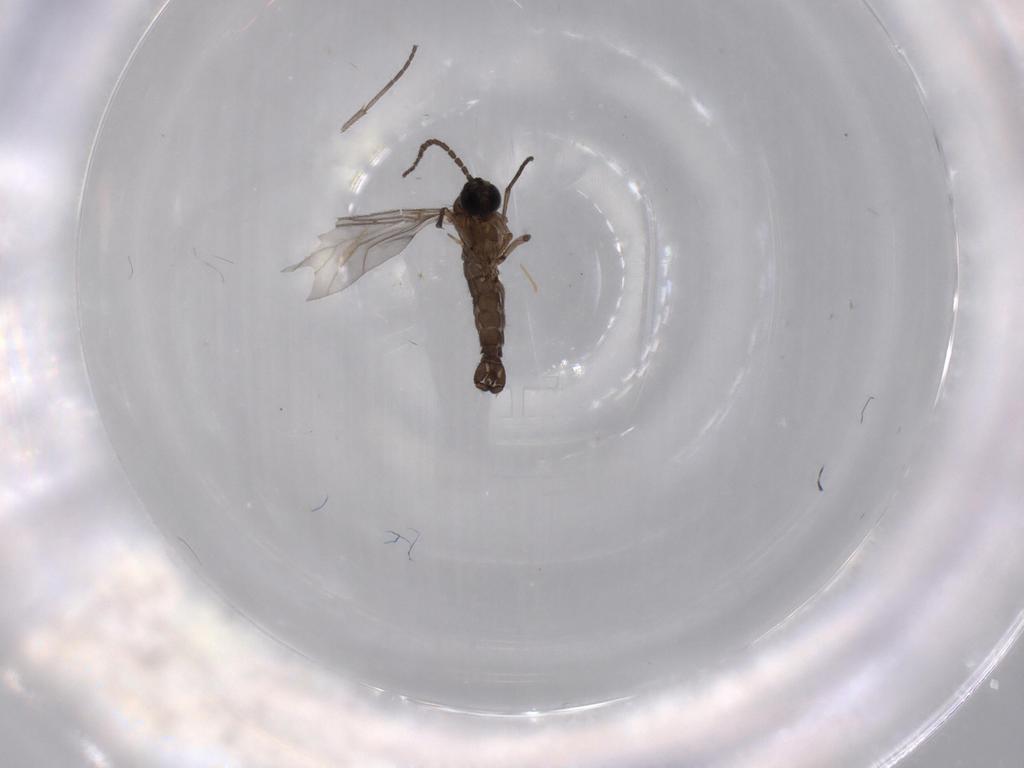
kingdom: Animalia
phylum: Arthropoda
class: Insecta
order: Diptera
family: Sciaridae
